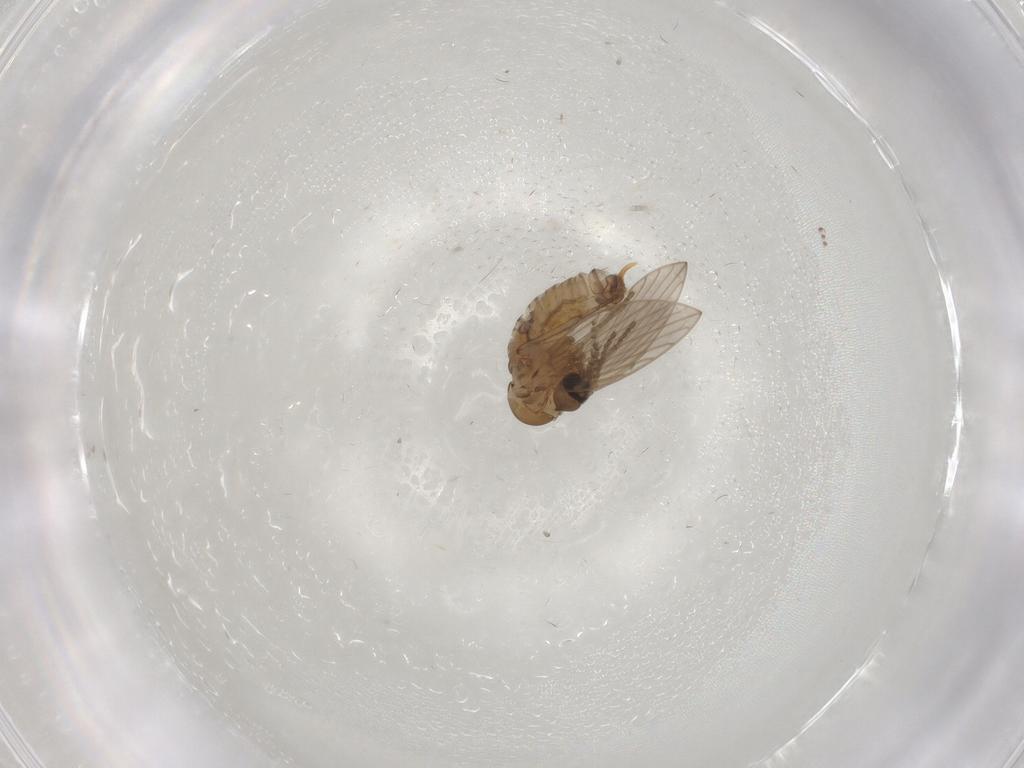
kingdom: Animalia
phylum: Arthropoda
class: Insecta
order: Diptera
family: Psychodidae
